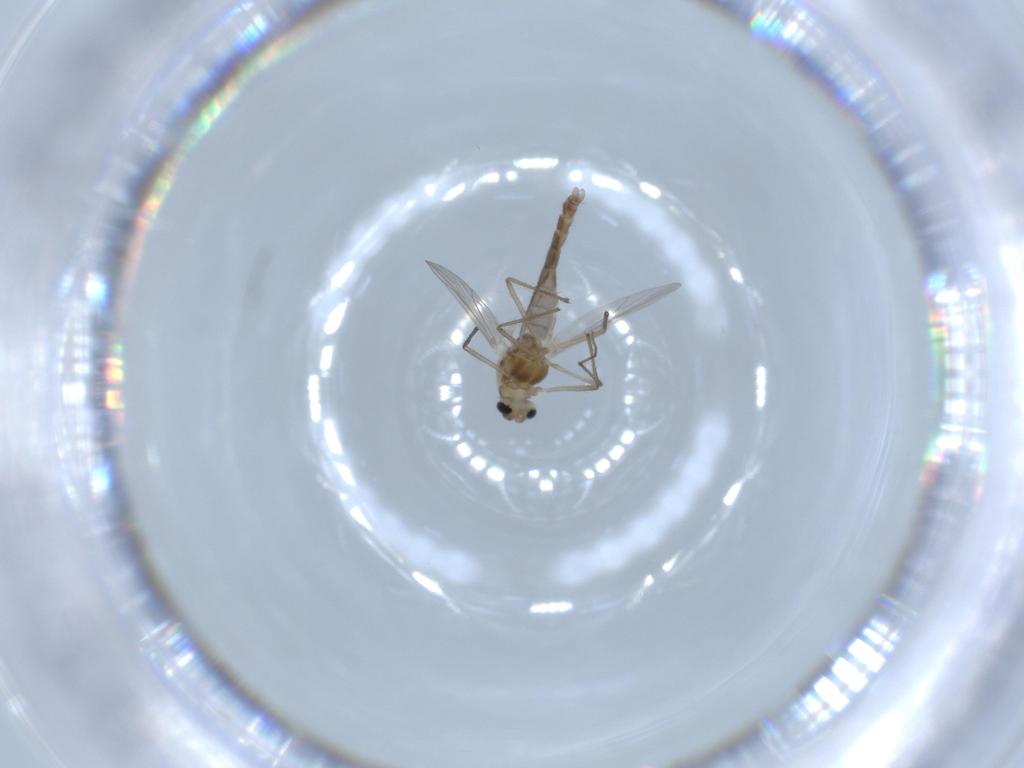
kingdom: Animalia
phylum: Arthropoda
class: Insecta
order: Diptera
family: Chironomidae
